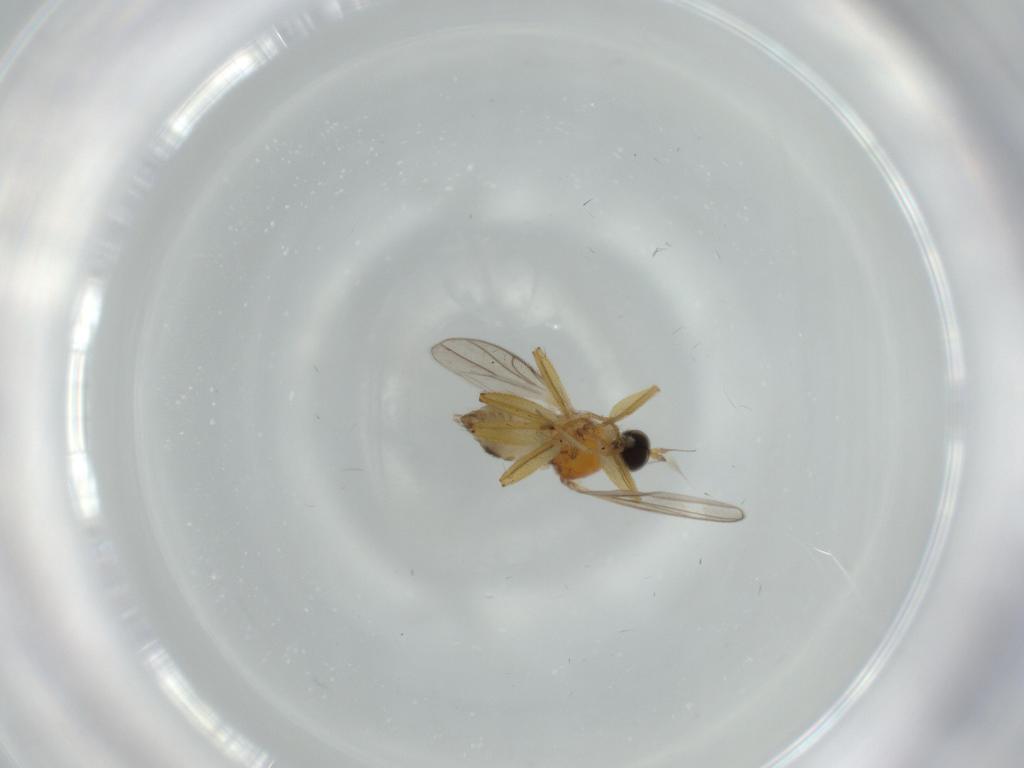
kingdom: Animalia
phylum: Arthropoda
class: Insecta
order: Diptera
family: Hybotidae
